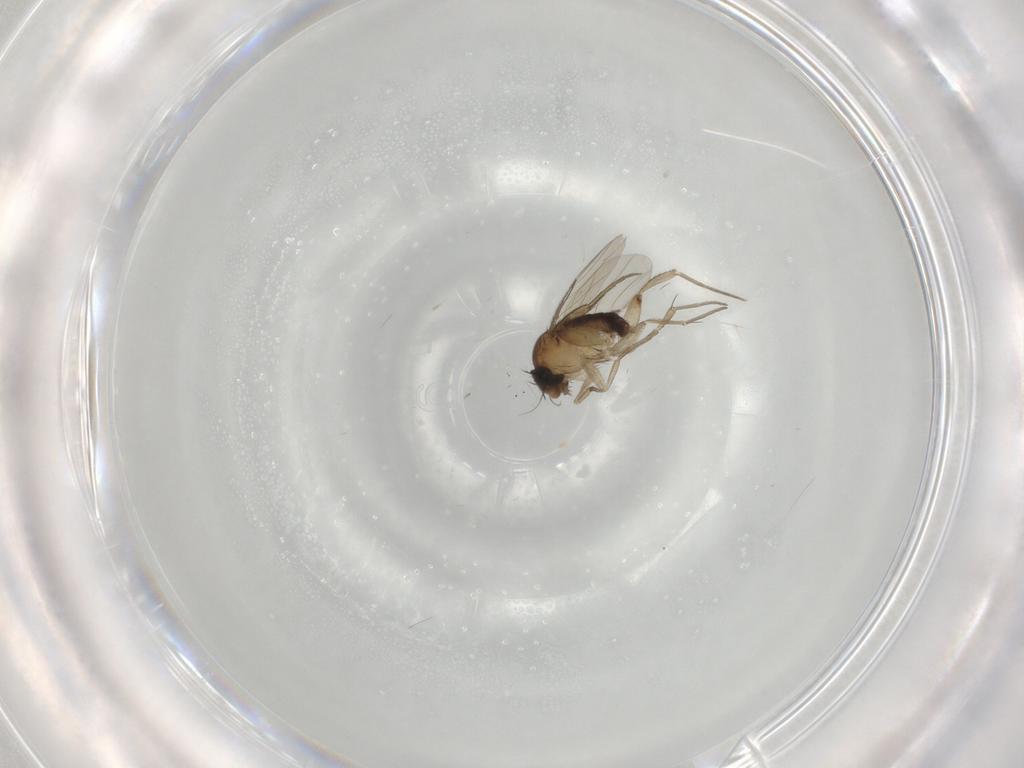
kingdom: Animalia
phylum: Arthropoda
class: Insecta
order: Diptera
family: Phoridae
